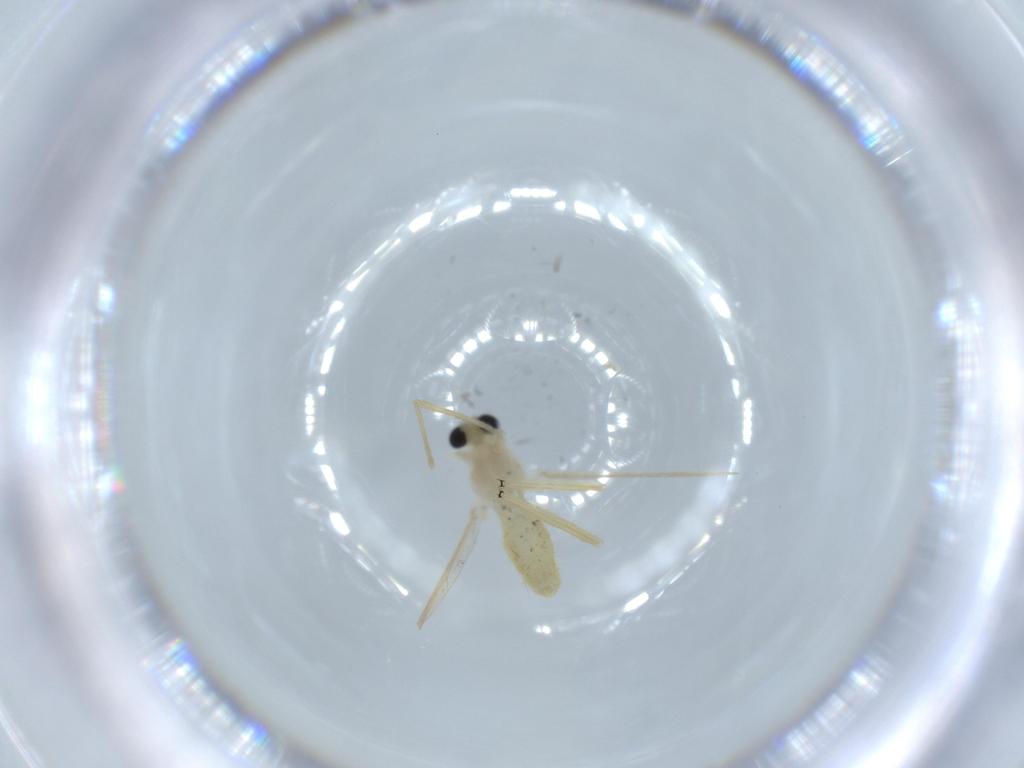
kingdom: Animalia
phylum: Arthropoda
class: Insecta
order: Diptera
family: Chironomidae
